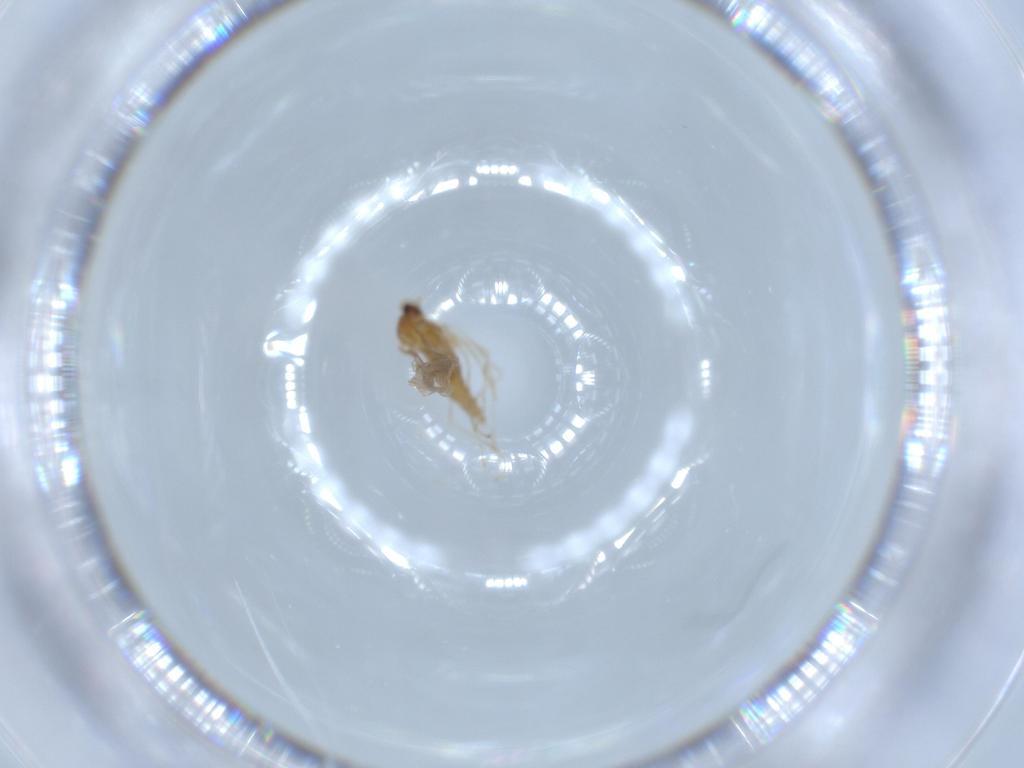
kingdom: Animalia
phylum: Arthropoda
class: Insecta
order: Diptera
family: Cecidomyiidae
